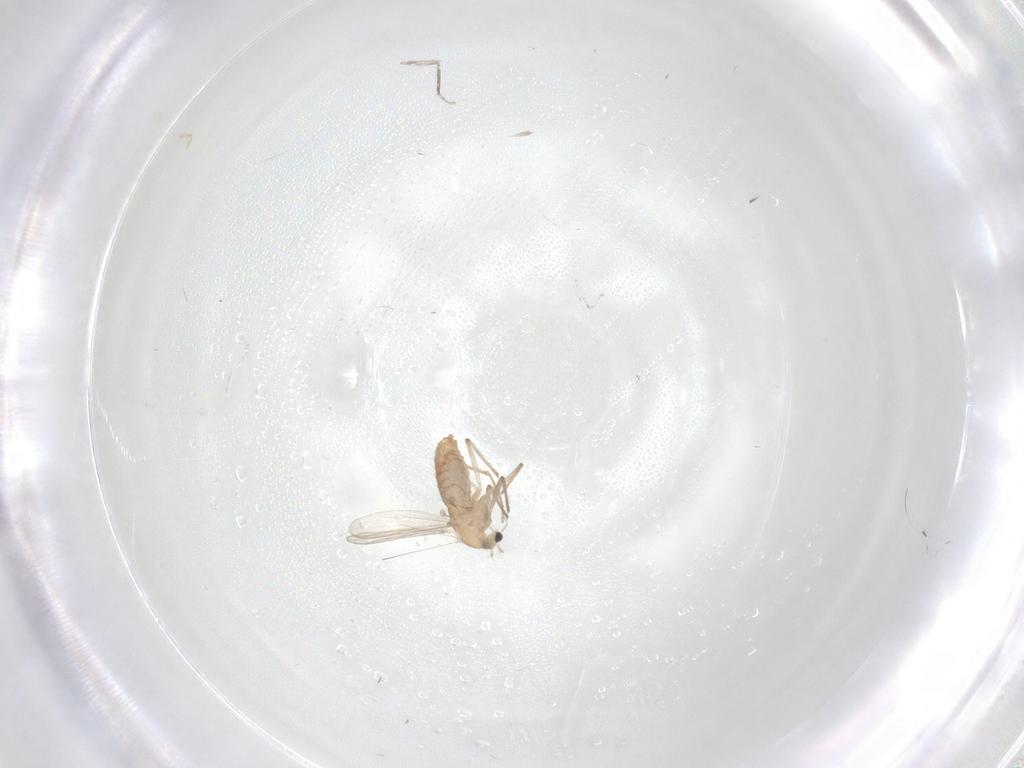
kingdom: Animalia
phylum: Arthropoda
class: Insecta
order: Diptera
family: Chironomidae
